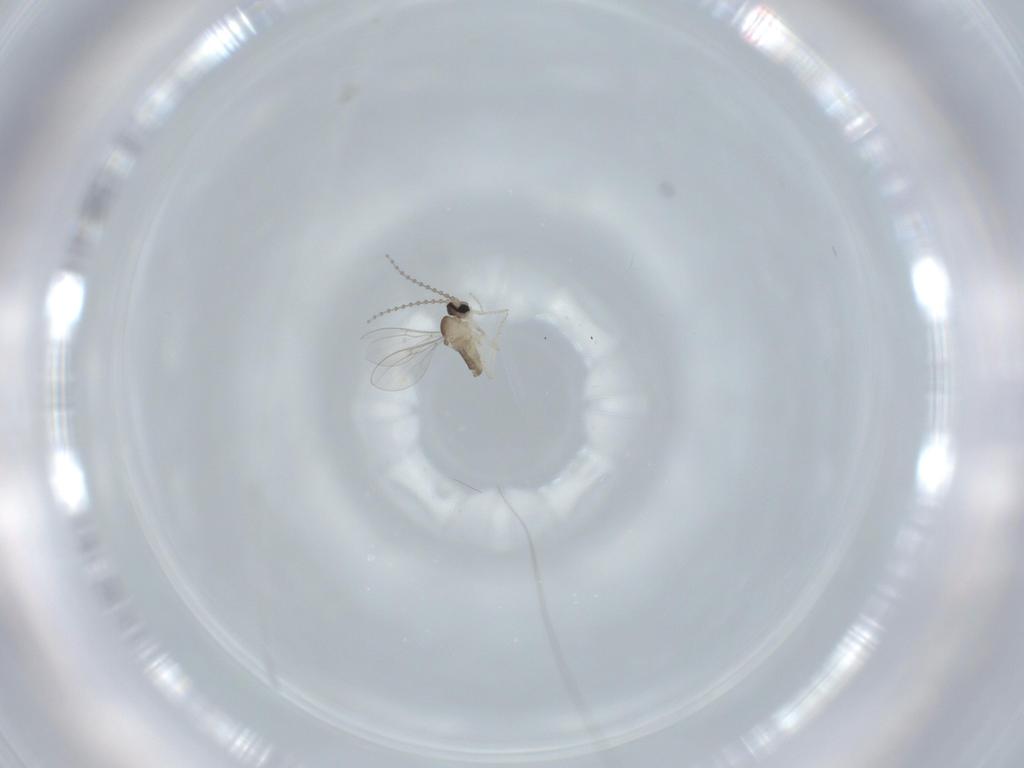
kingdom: Animalia
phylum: Arthropoda
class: Insecta
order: Diptera
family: Cecidomyiidae
